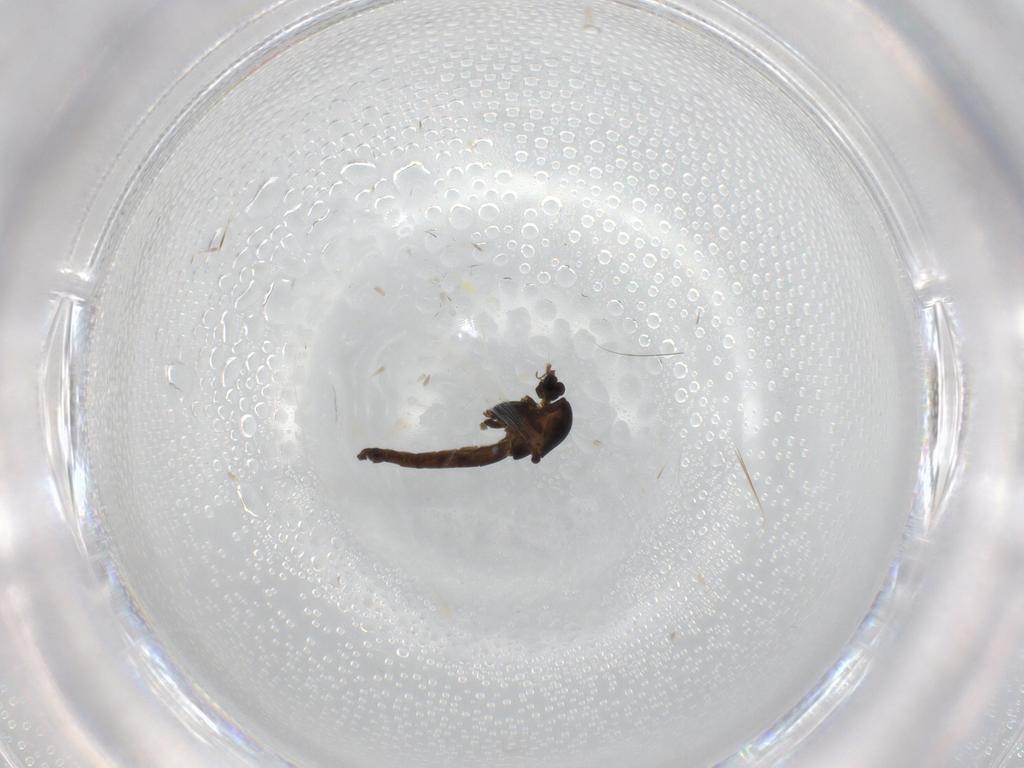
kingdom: Animalia
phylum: Arthropoda
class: Insecta
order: Diptera
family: Chironomidae
